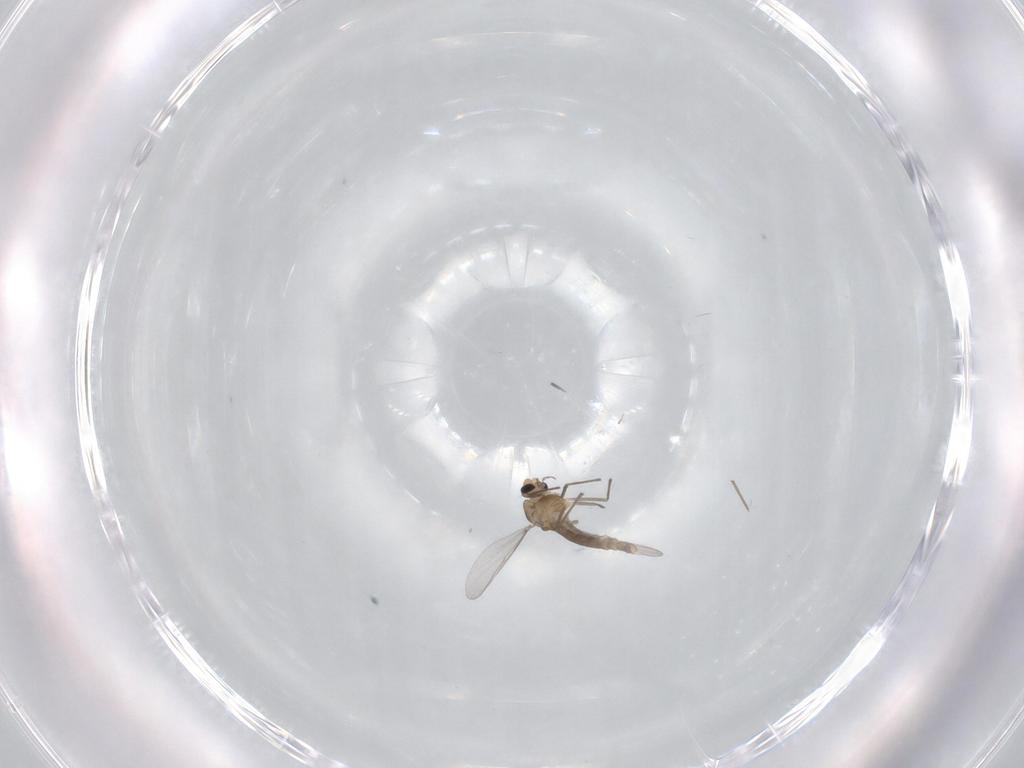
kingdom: Animalia
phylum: Arthropoda
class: Insecta
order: Diptera
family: Chironomidae
